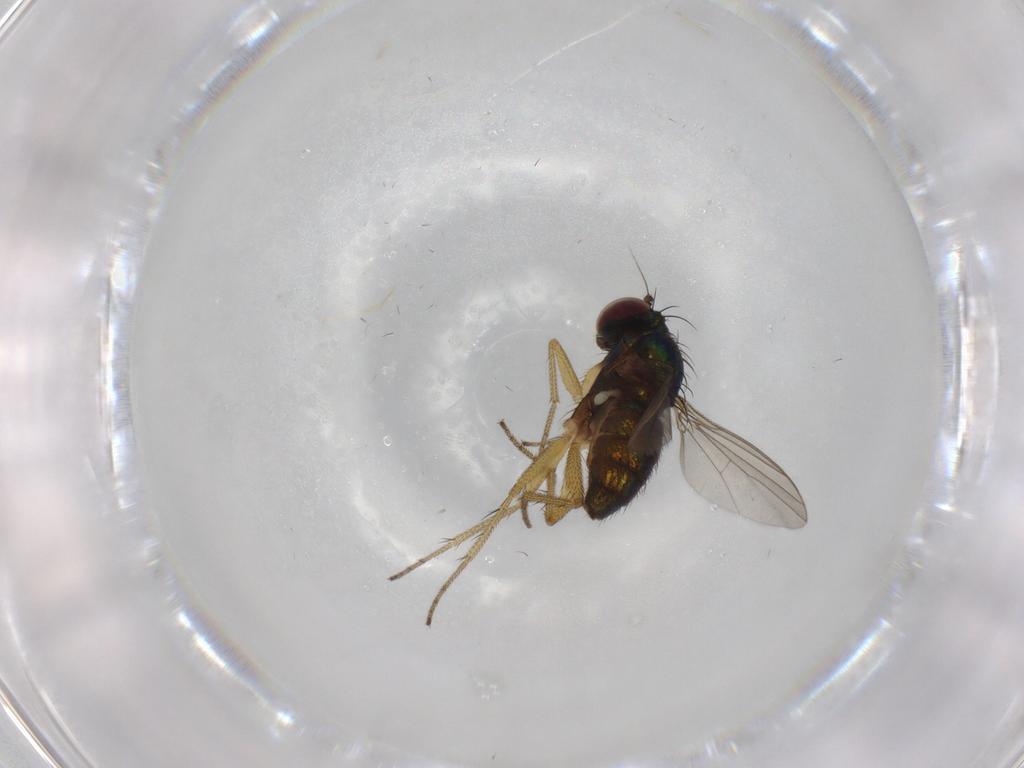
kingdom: Animalia
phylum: Arthropoda
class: Insecta
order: Diptera
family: Dolichopodidae
